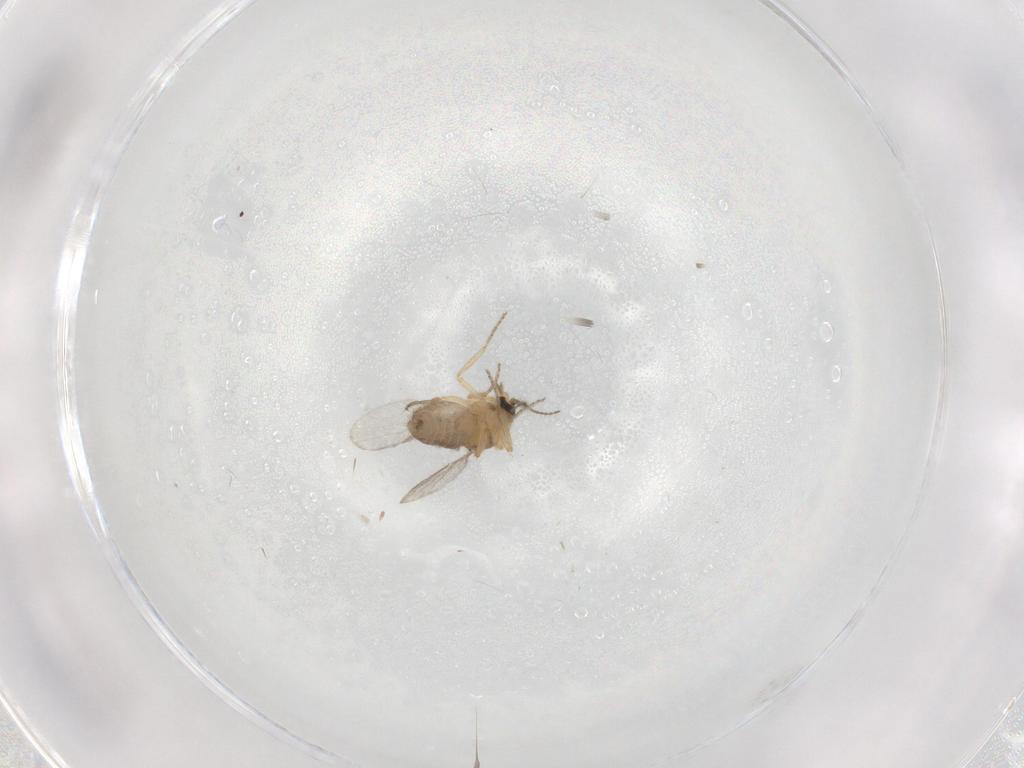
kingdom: Animalia
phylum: Arthropoda
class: Insecta
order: Diptera
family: Ceratopogonidae
